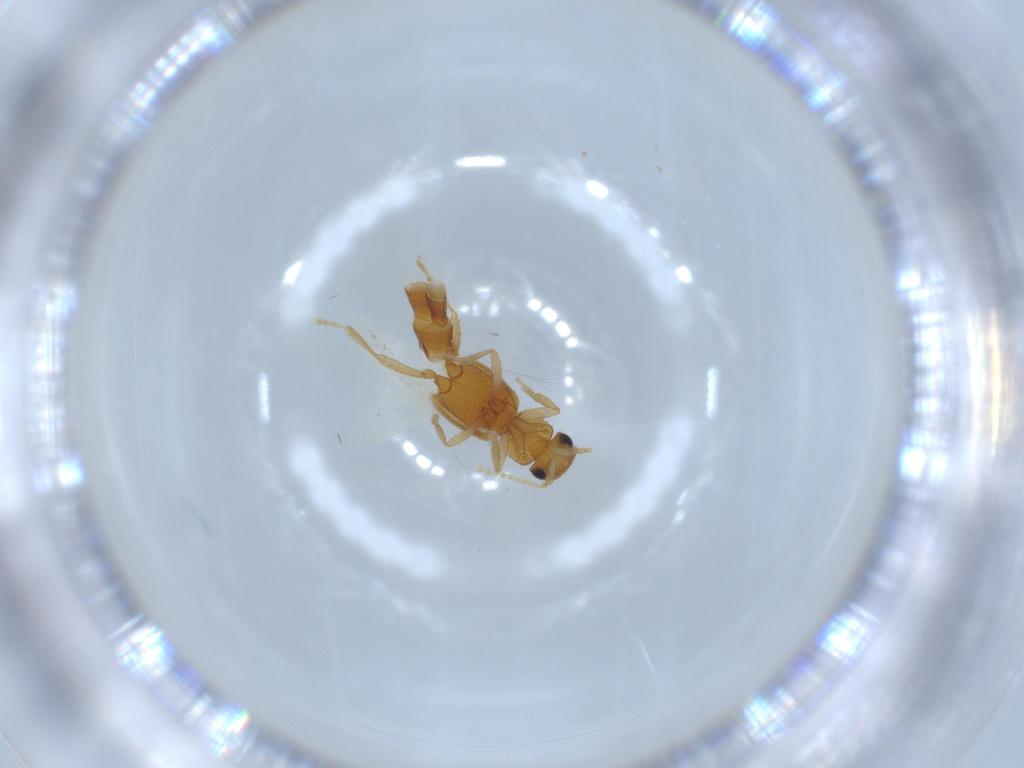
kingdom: Animalia
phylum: Arthropoda
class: Insecta
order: Coleoptera
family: Staphylinidae
